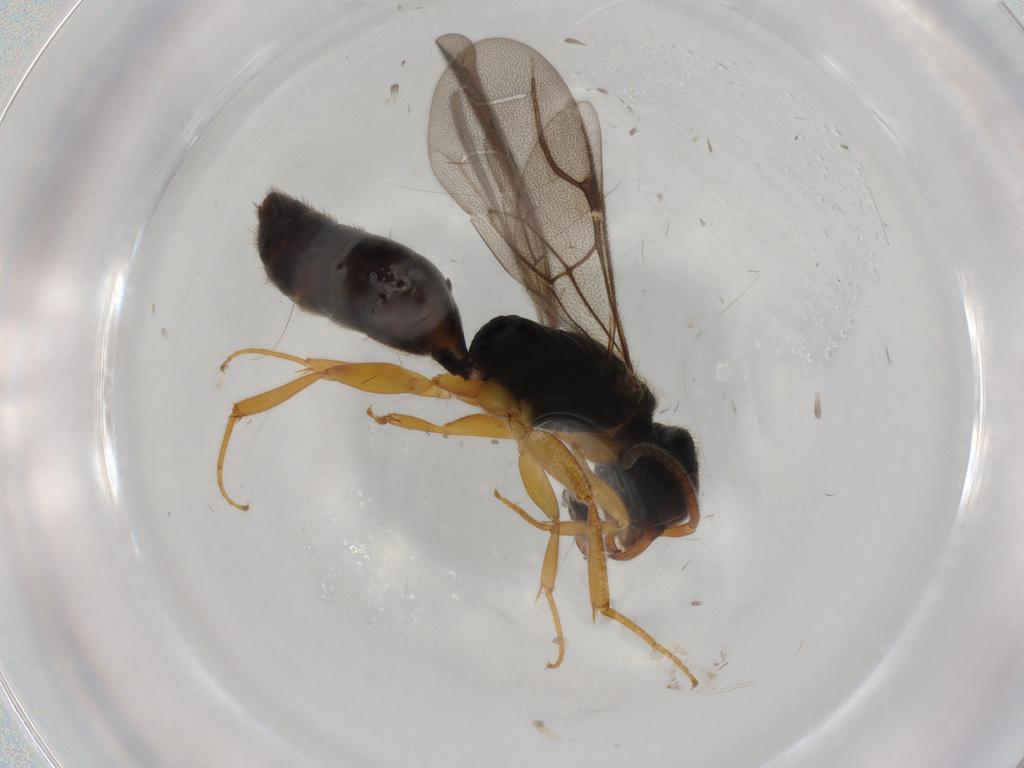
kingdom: Animalia
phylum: Arthropoda
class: Insecta
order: Hymenoptera
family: Bethylidae
